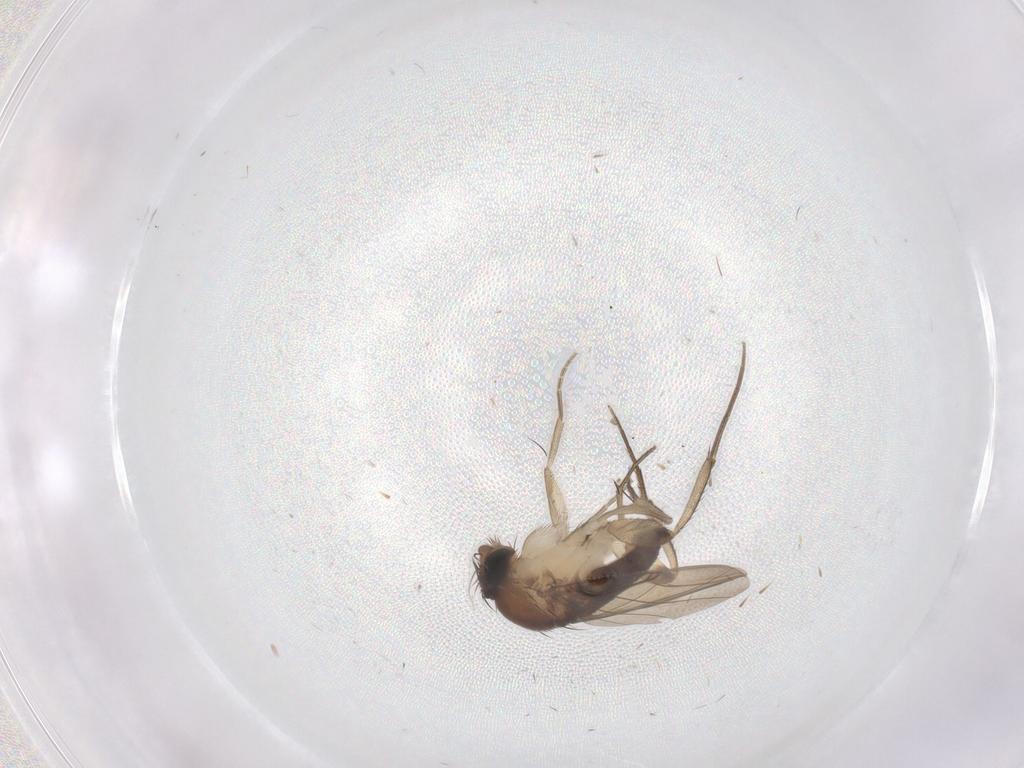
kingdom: Animalia
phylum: Arthropoda
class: Insecta
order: Diptera
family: Phoridae
